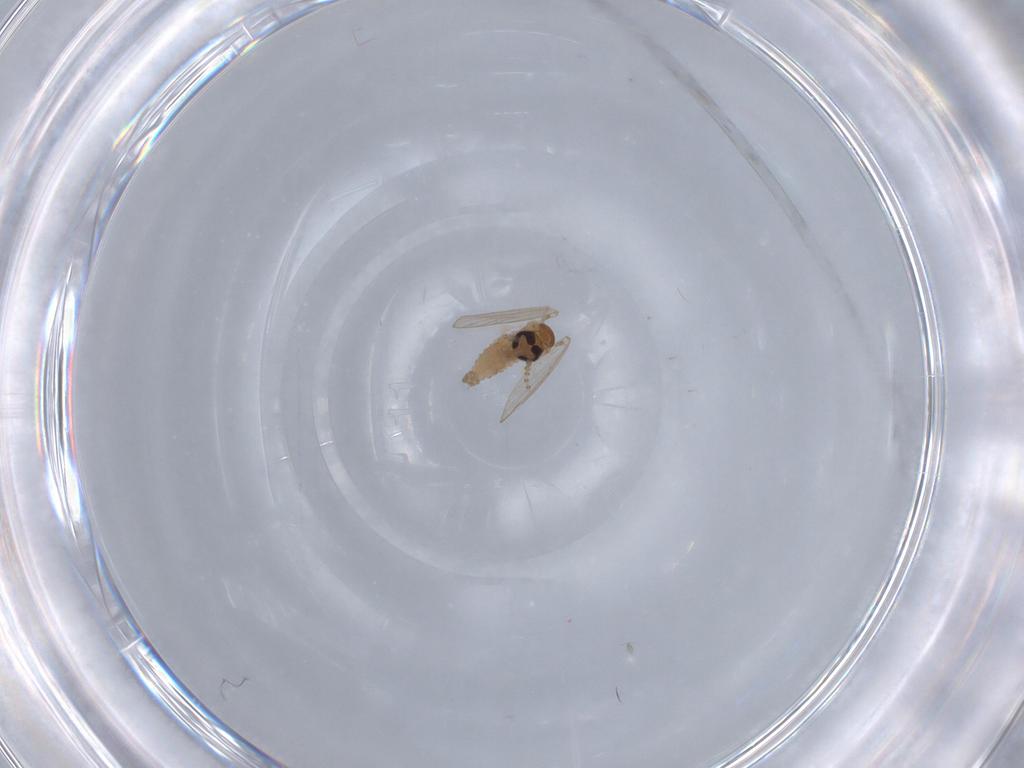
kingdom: Animalia
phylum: Arthropoda
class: Insecta
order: Diptera
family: Psychodidae
